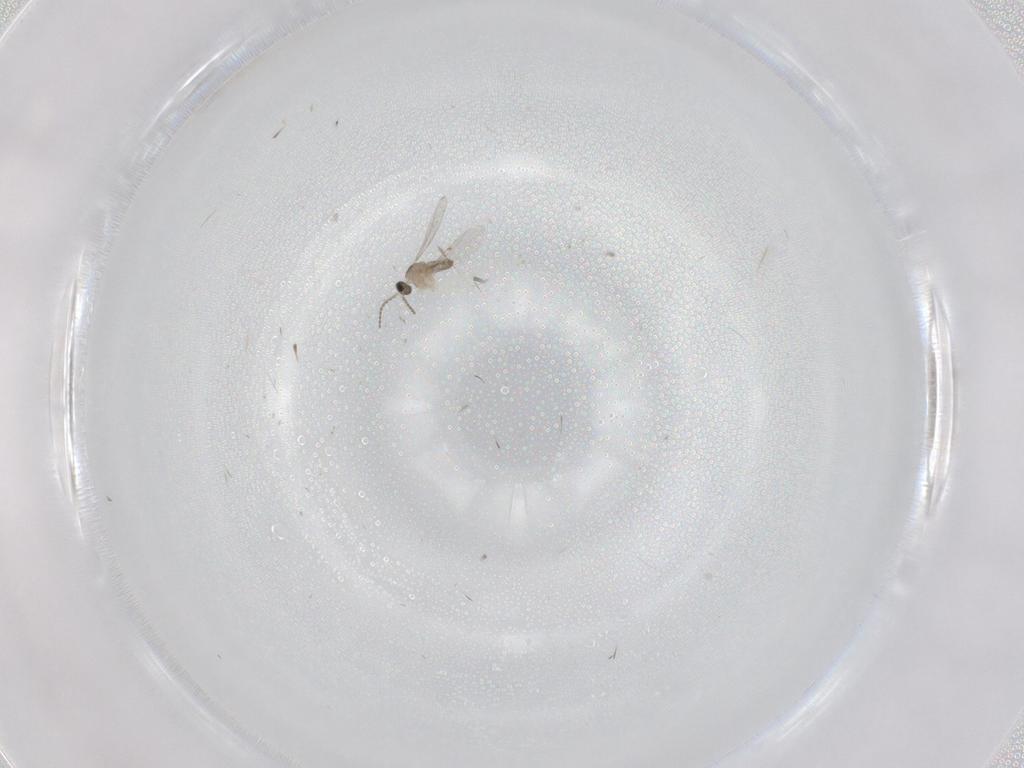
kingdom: Animalia
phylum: Arthropoda
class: Insecta
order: Diptera
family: Cecidomyiidae
